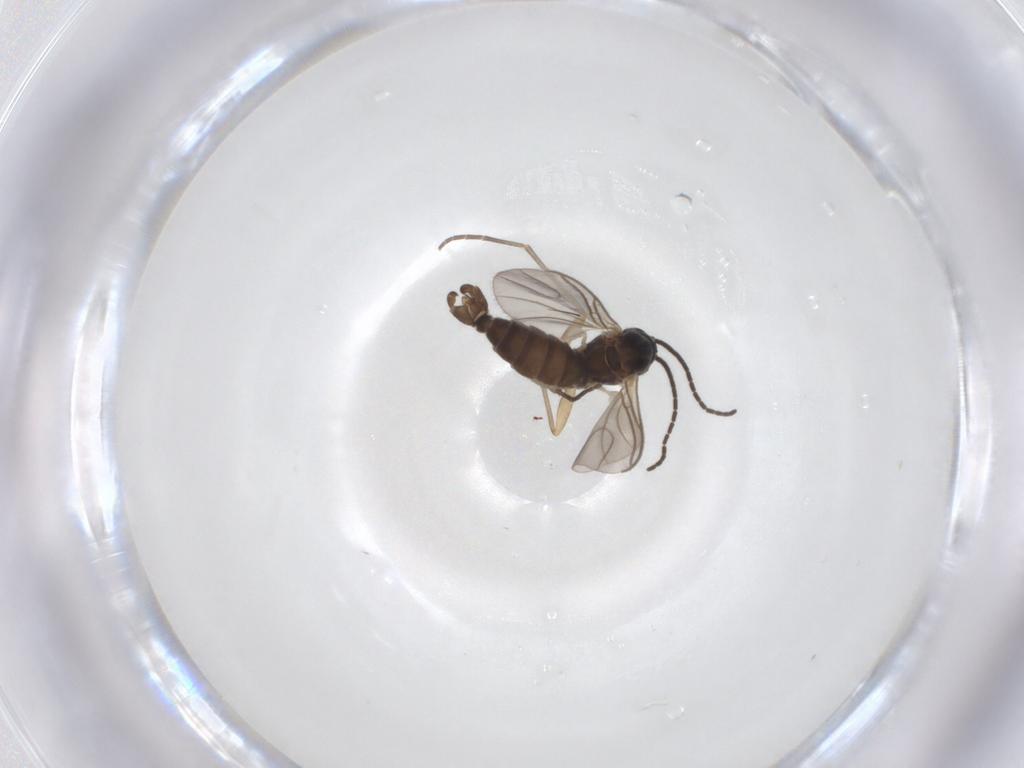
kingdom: Animalia
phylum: Arthropoda
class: Insecta
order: Diptera
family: Sciaridae
